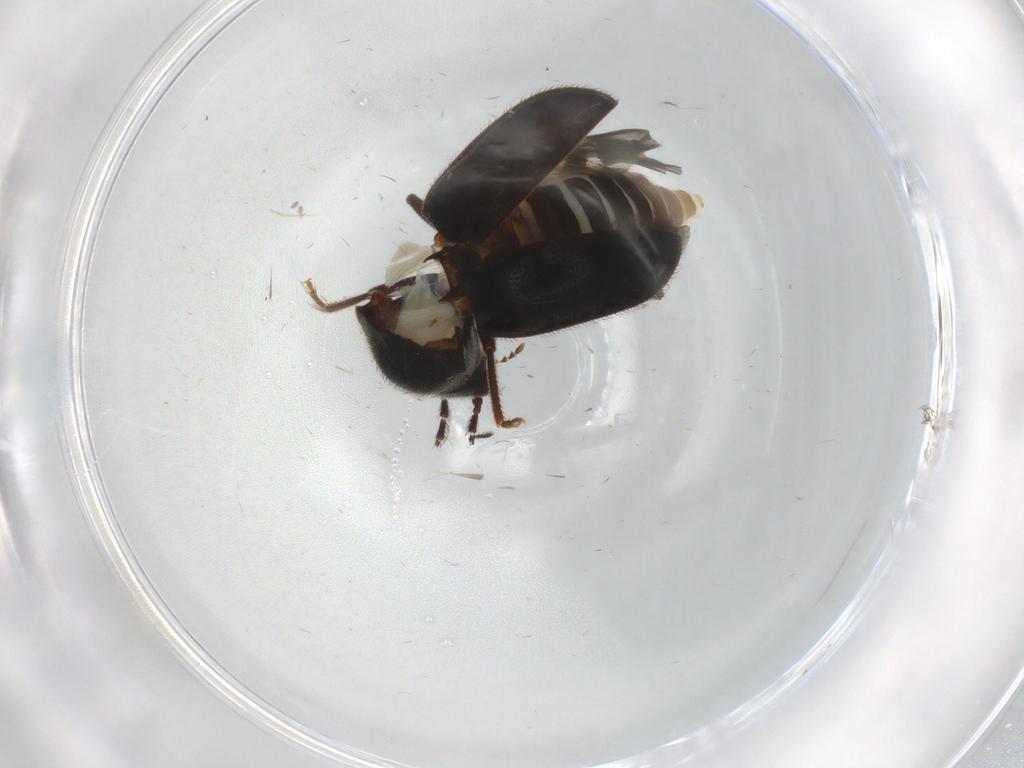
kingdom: Animalia
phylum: Arthropoda
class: Insecta
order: Coleoptera
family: Ptilodactylidae
